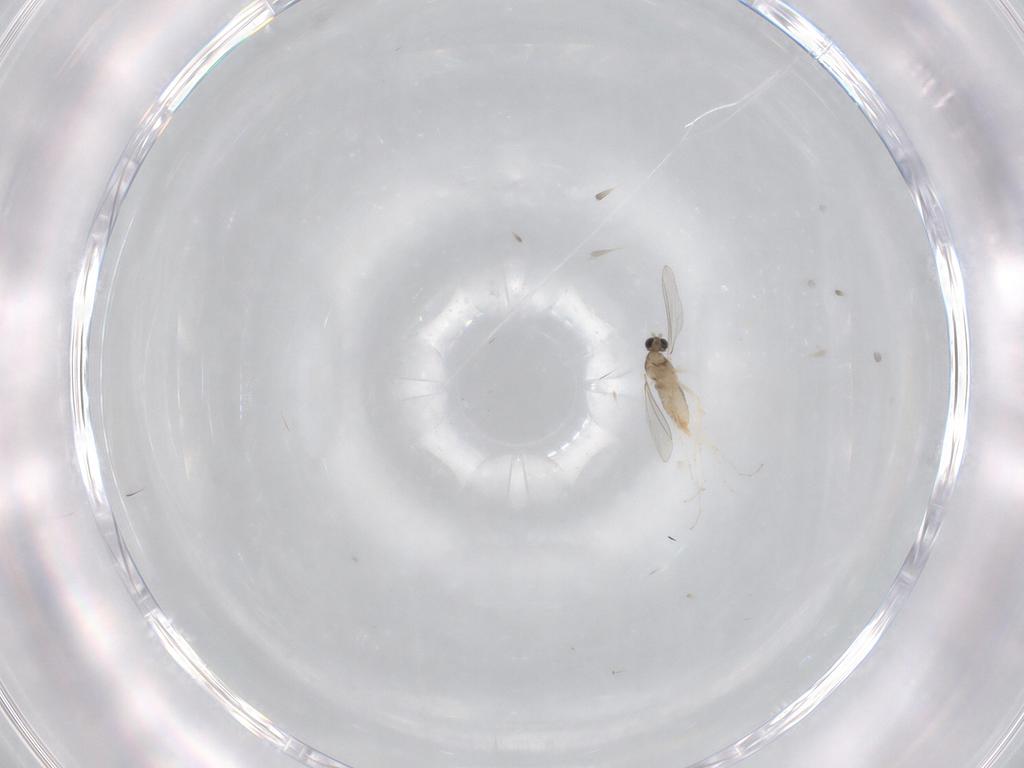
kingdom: Animalia
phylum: Arthropoda
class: Insecta
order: Diptera
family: Cecidomyiidae
